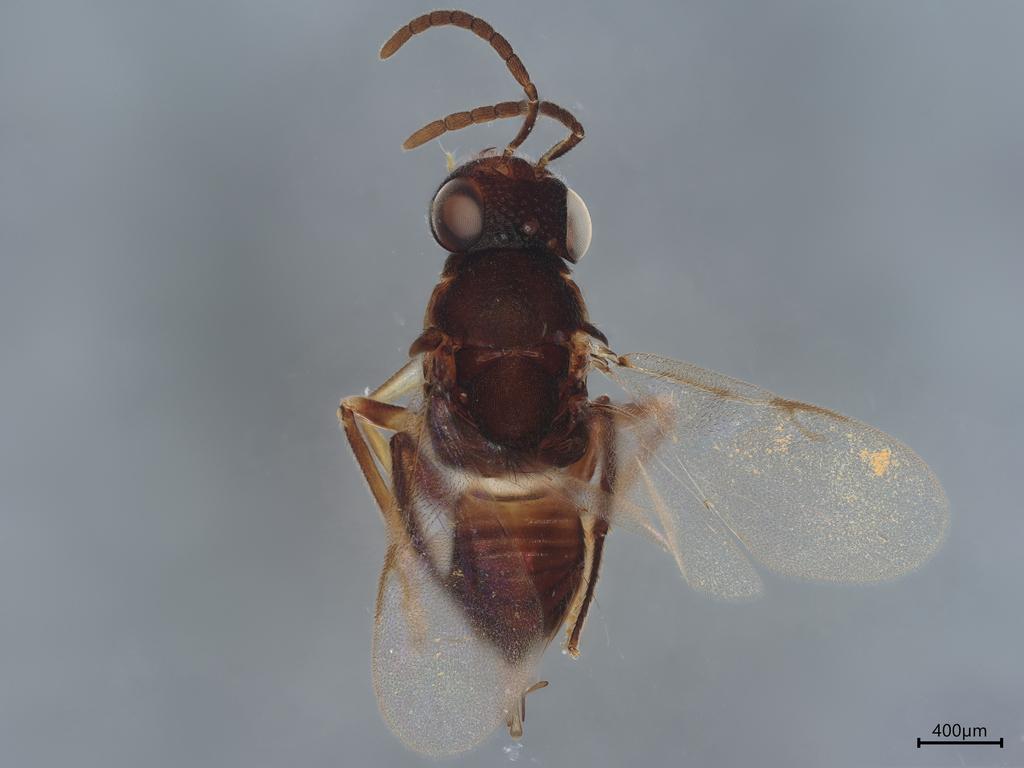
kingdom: Animalia
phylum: Arthropoda
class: Insecta
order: Hymenoptera
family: Encyrtidae
